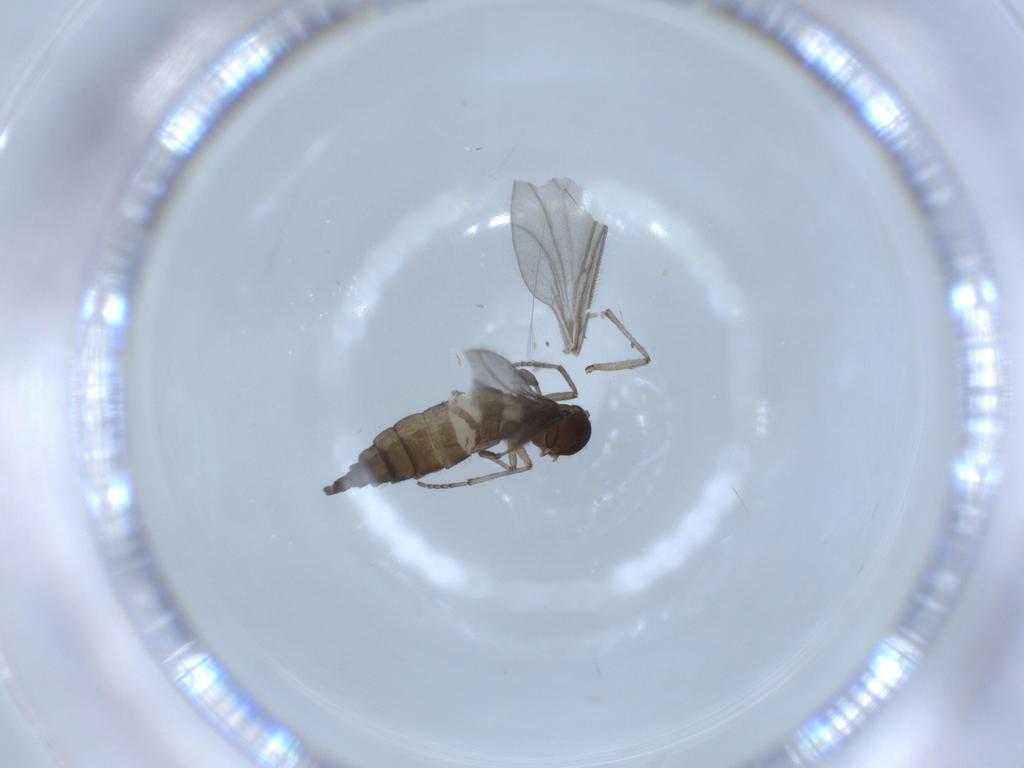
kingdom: Animalia
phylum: Arthropoda
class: Insecta
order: Diptera
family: Sciaridae
